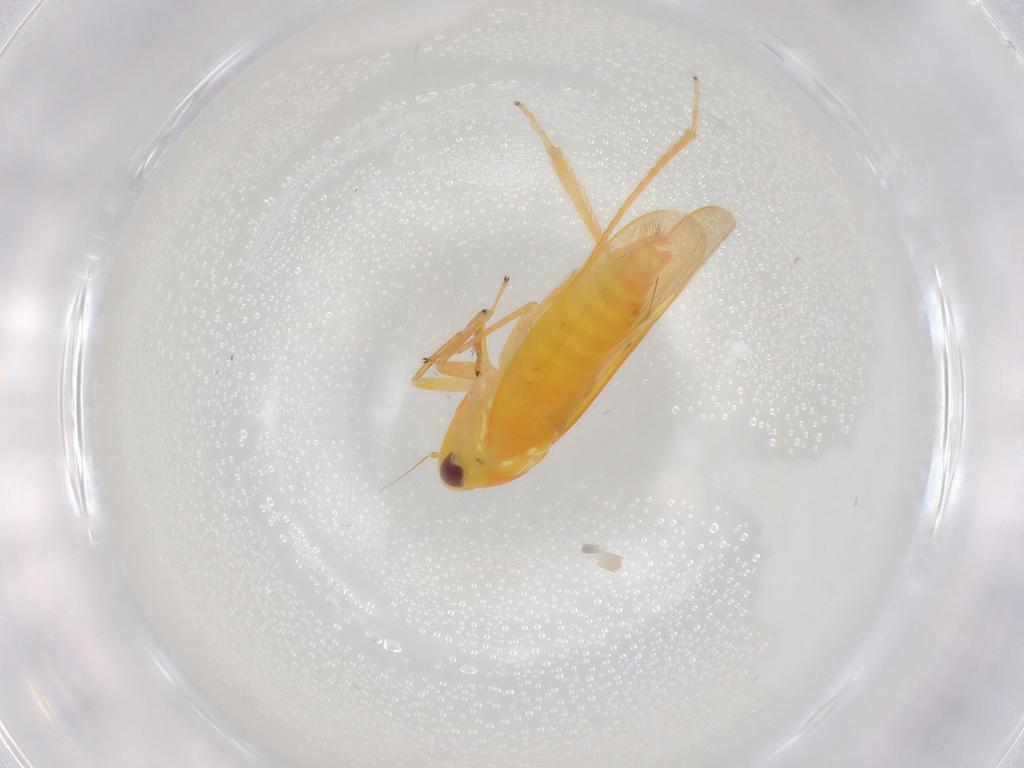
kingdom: Animalia
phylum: Arthropoda
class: Insecta
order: Hemiptera
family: Cicadellidae
